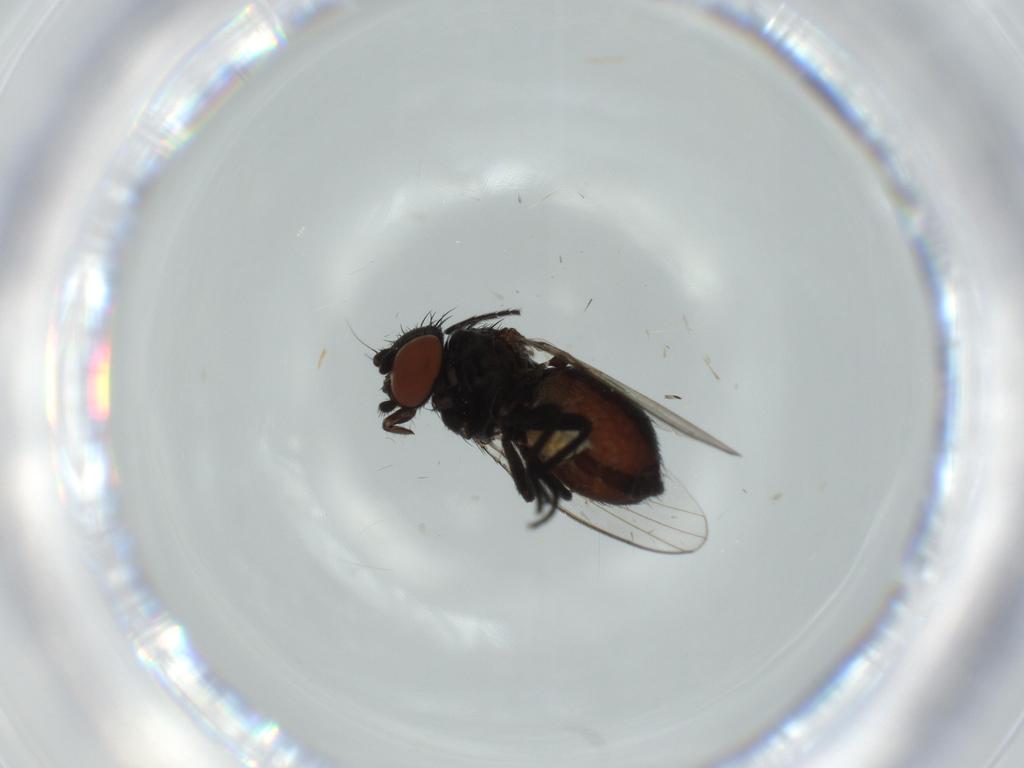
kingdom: Animalia
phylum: Arthropoda
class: Insecta
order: Diptera
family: Milichiidae
